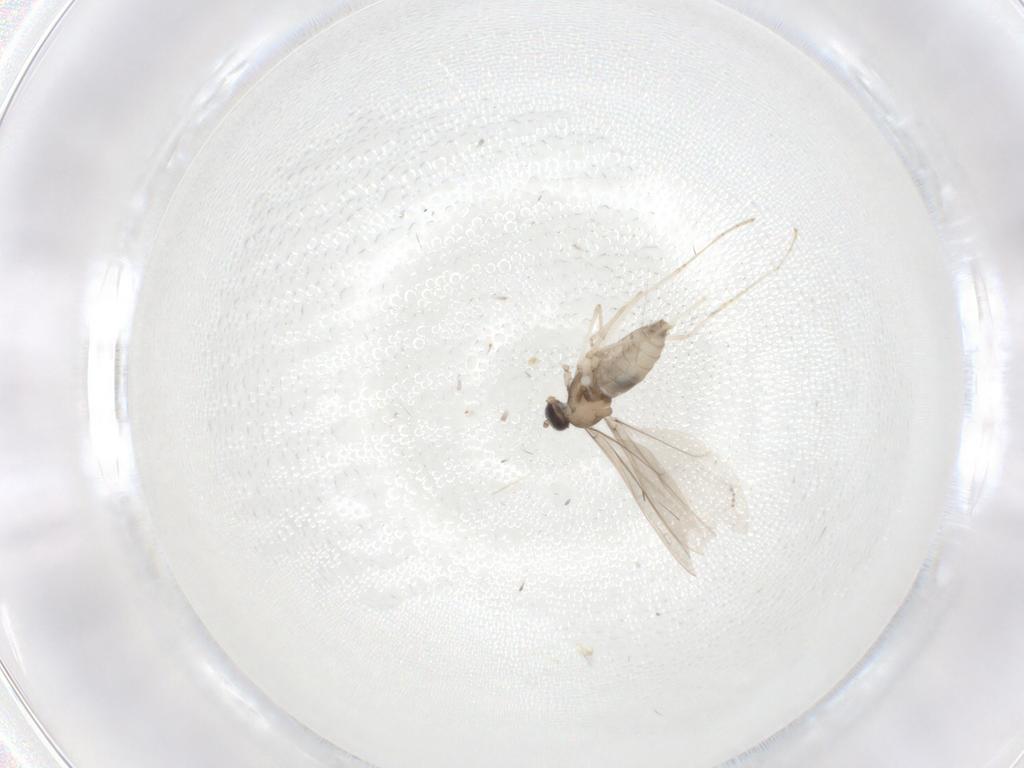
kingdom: Animalia
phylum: Arthropoda
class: Insecta
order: Diptera
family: Cecidomyiidae
